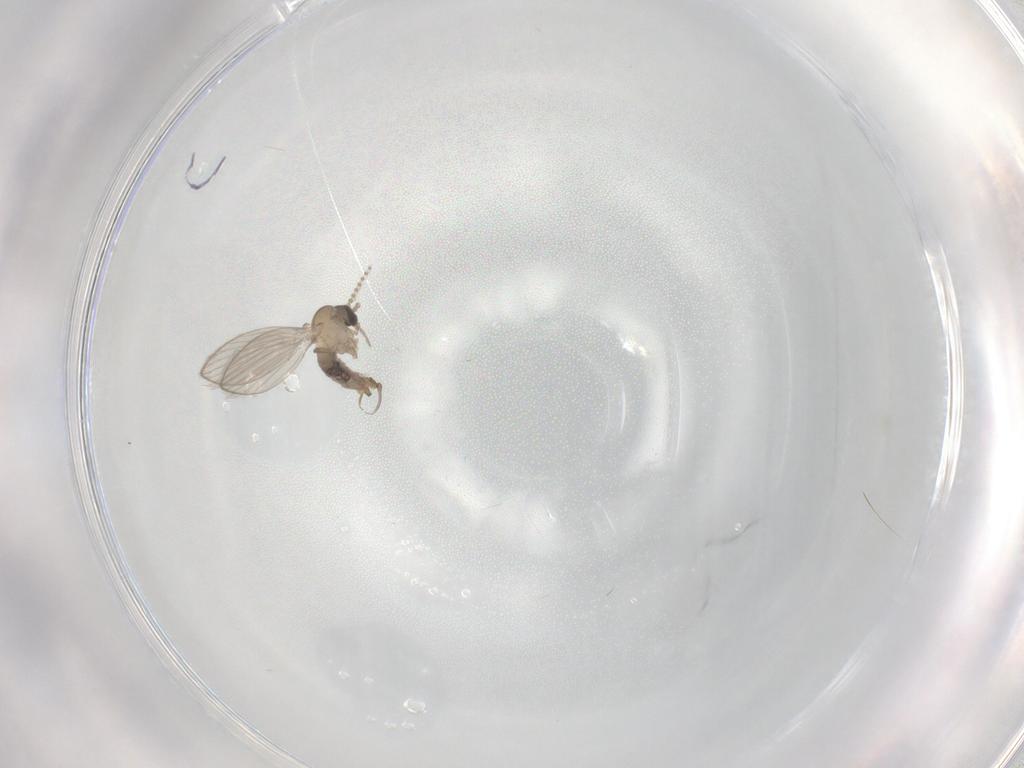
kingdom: Animalia
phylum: Arthropoda
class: Insecta
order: Diptera
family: Psychodidae
